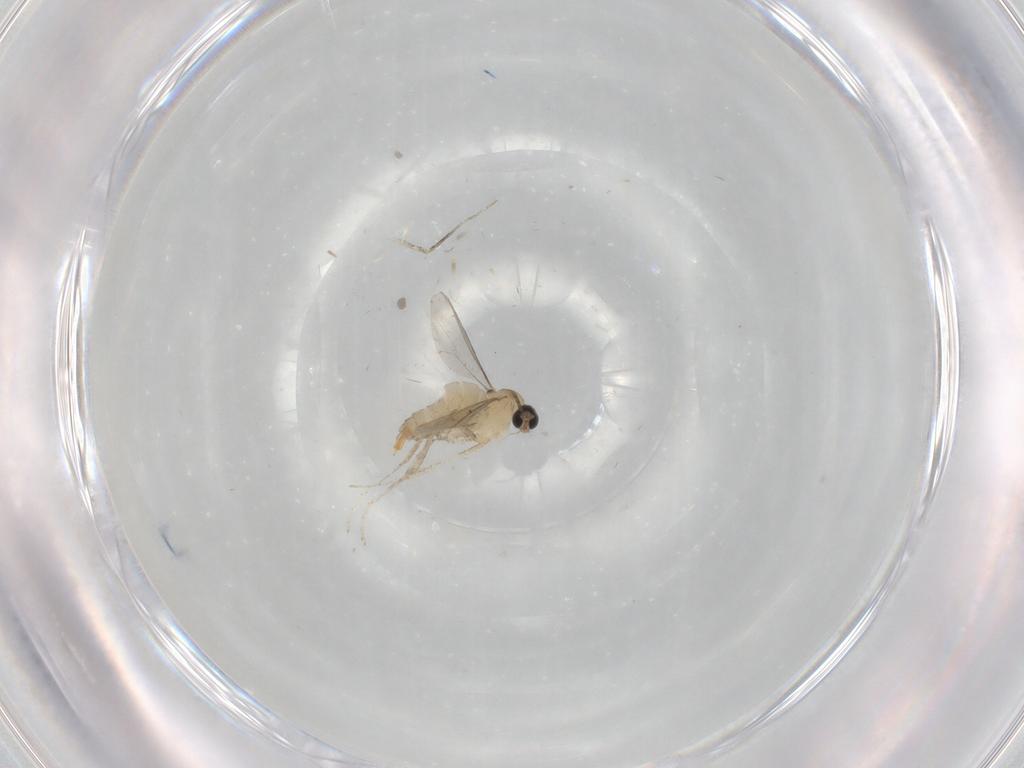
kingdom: Animalia
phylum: Arthropoda
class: Insecta
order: Diptera
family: Cecidomyiidae
